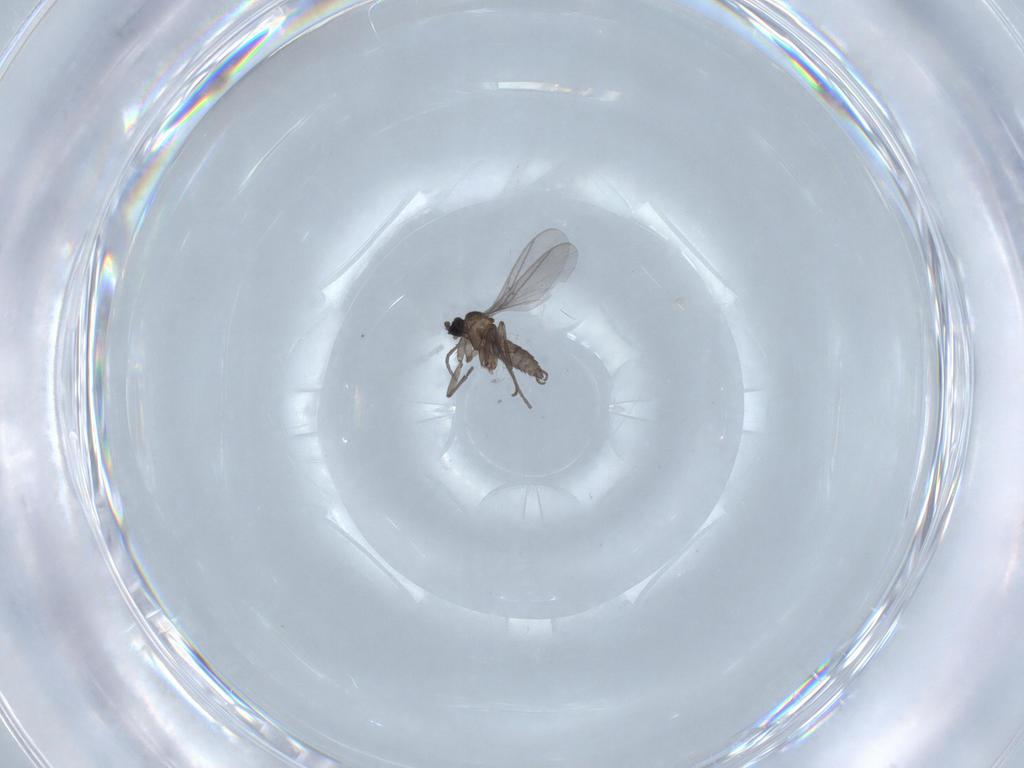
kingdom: Animalia
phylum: Arthropoda
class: Insecta
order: Diptera
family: Sciaridae
